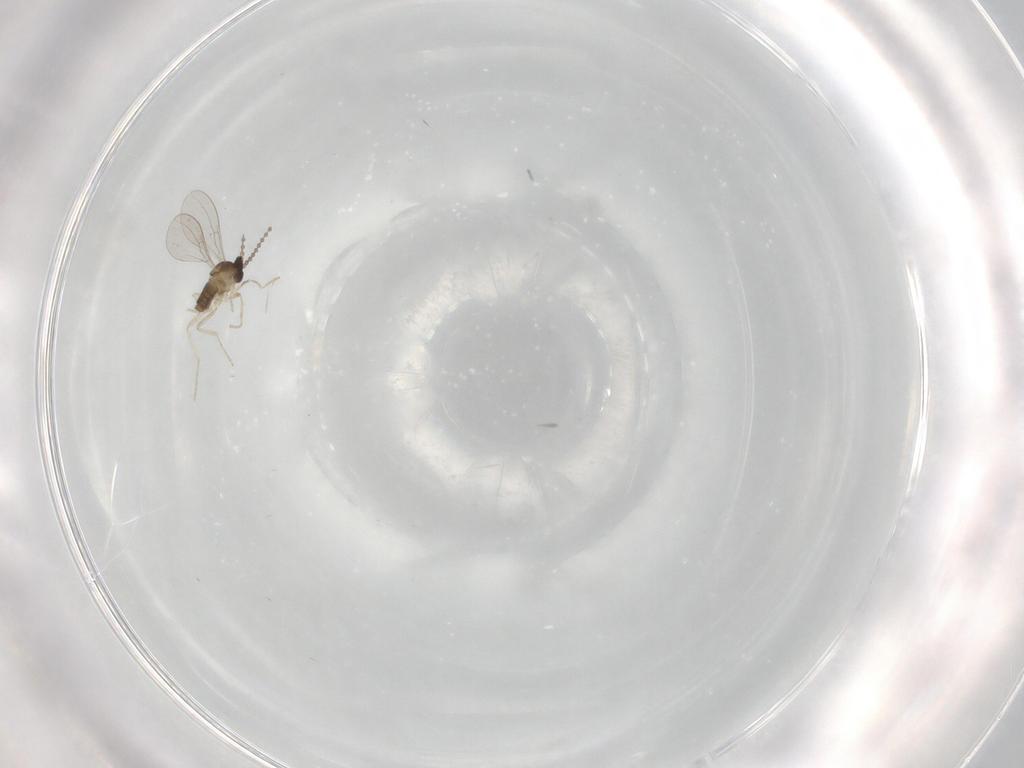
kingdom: Animalia
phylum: Arthropoda
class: Insecta
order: Diptera
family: Cecidomyiidae
